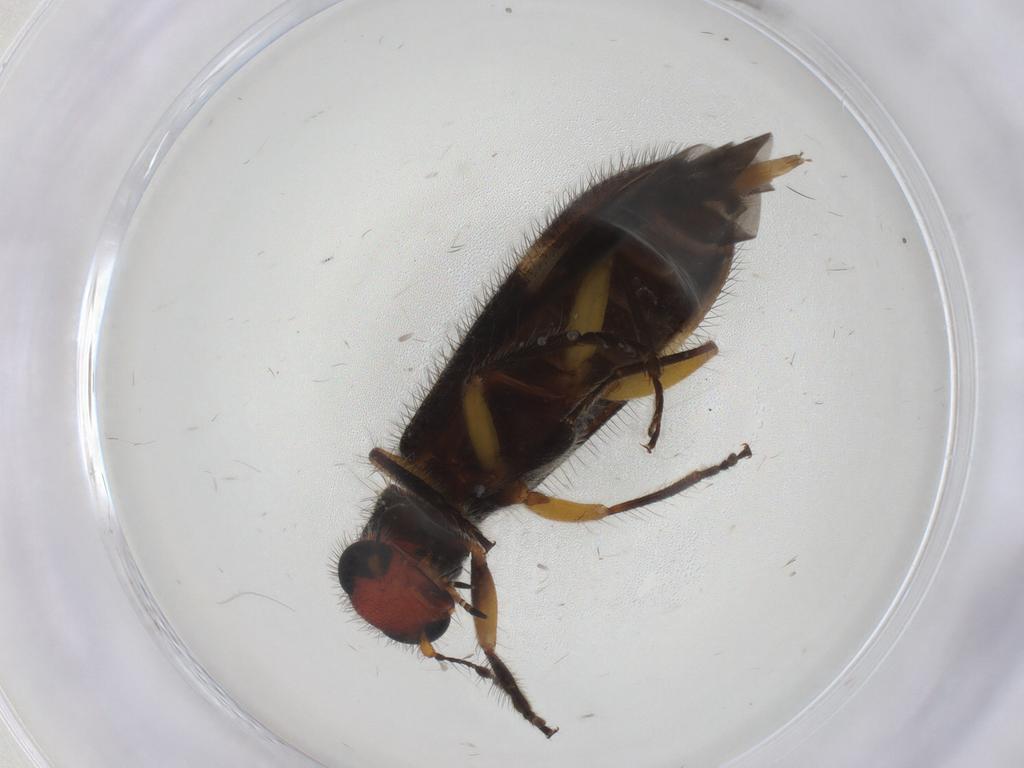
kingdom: Animalia
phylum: Arthropoda
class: Insecta
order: Coleoptera
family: Cleridae
